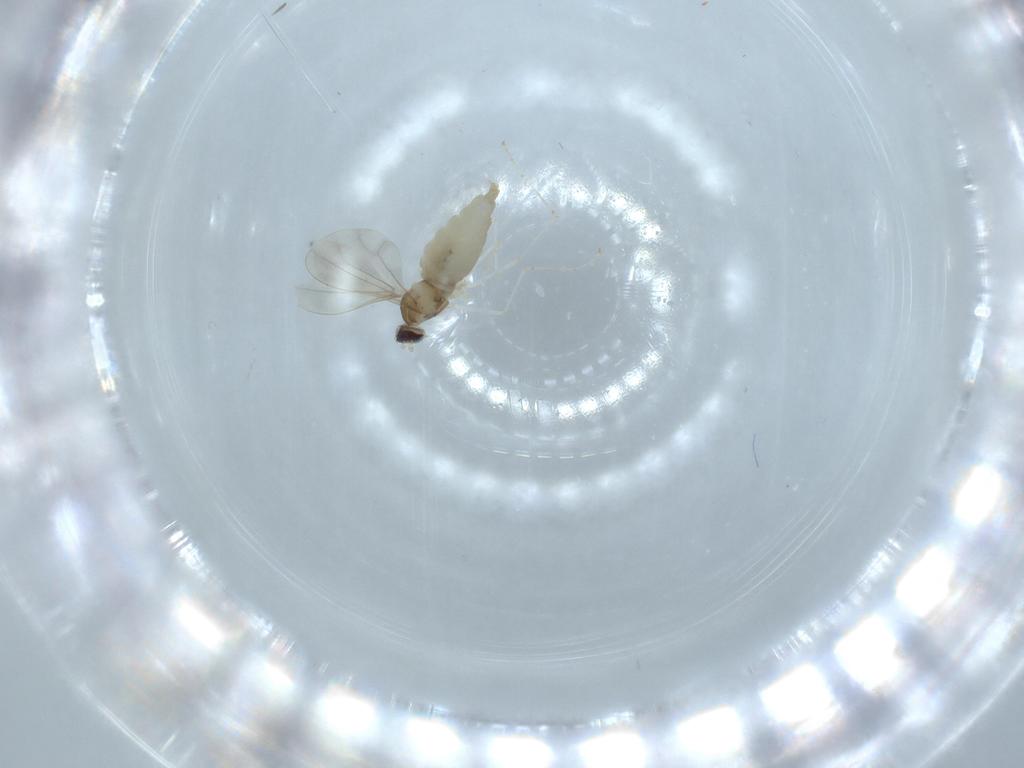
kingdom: Animalia
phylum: Arthropoda
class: Insecta
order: Diptera
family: Cecidomyiidae
